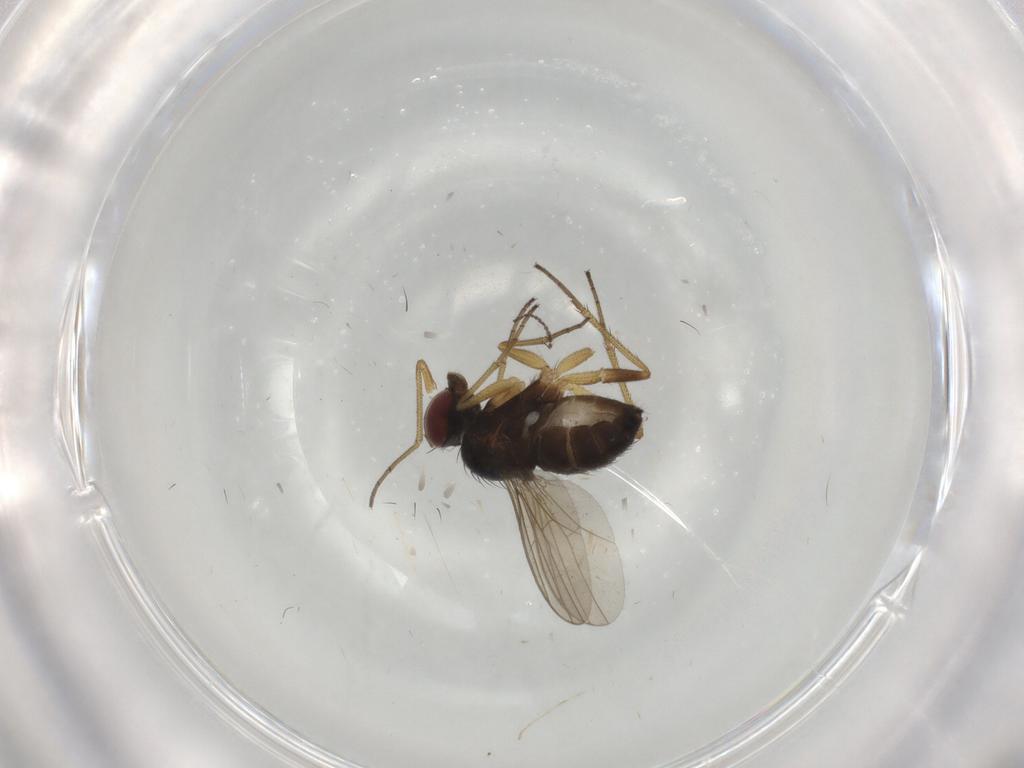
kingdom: Animalia
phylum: Arthropoda
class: Insecta
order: Diptera
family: Dolichopodidae
